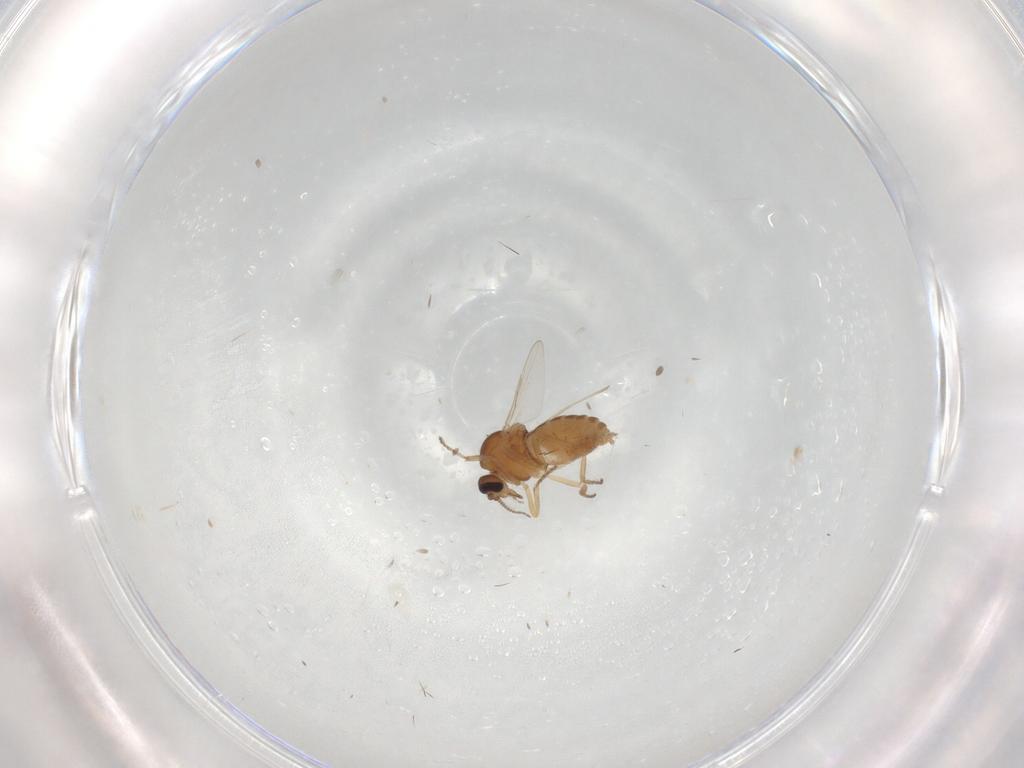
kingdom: Animalia
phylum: Arthropoda
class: Insecta
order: Diptera
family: Ceratopogonidae
